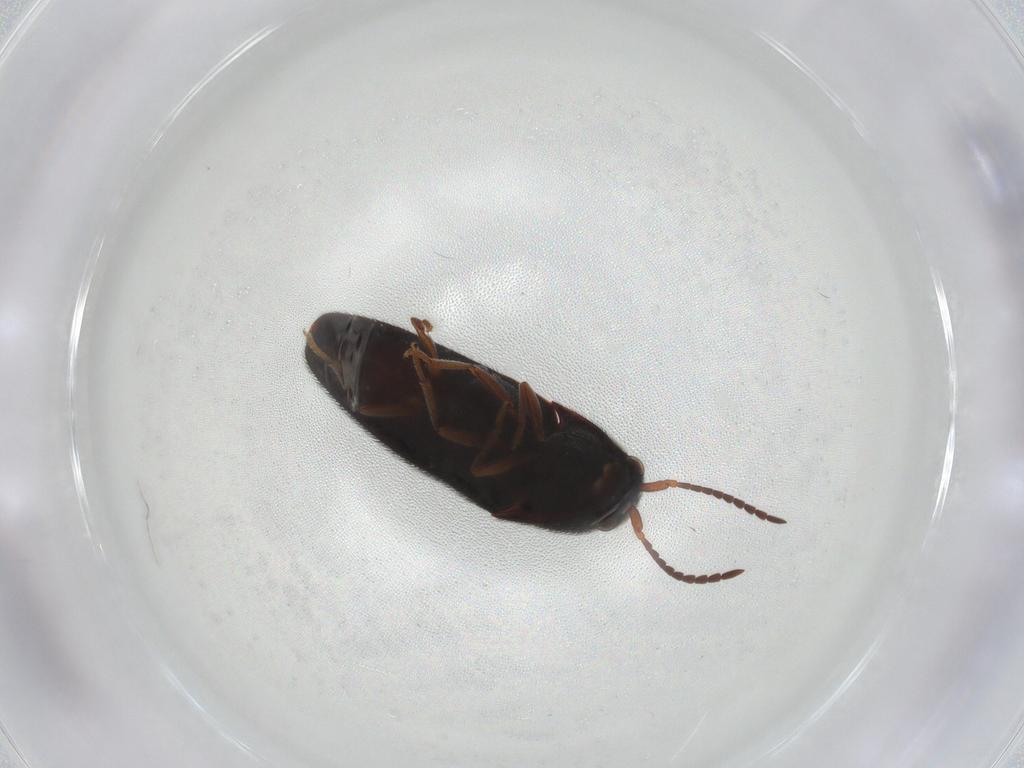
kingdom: Animalia
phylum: Arthropoda
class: Insecta
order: Coleoptera
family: Eucnemidae
